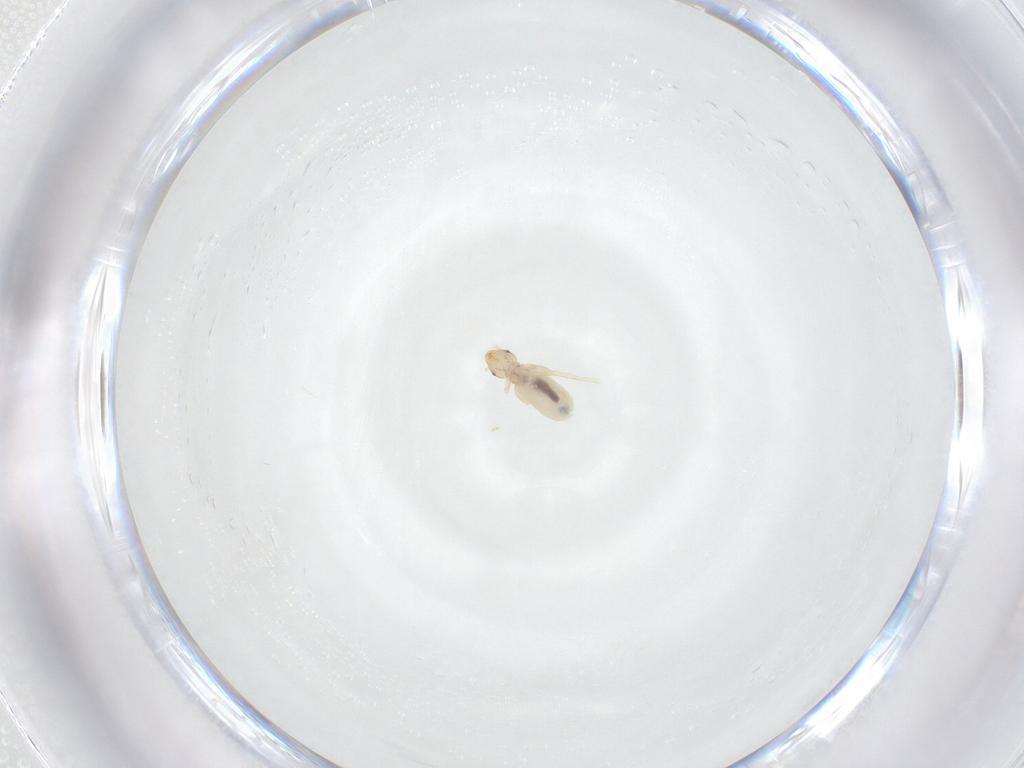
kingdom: Animalia
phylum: Arthropoda
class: Insecta
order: Psocodea
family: Liposcelididae
